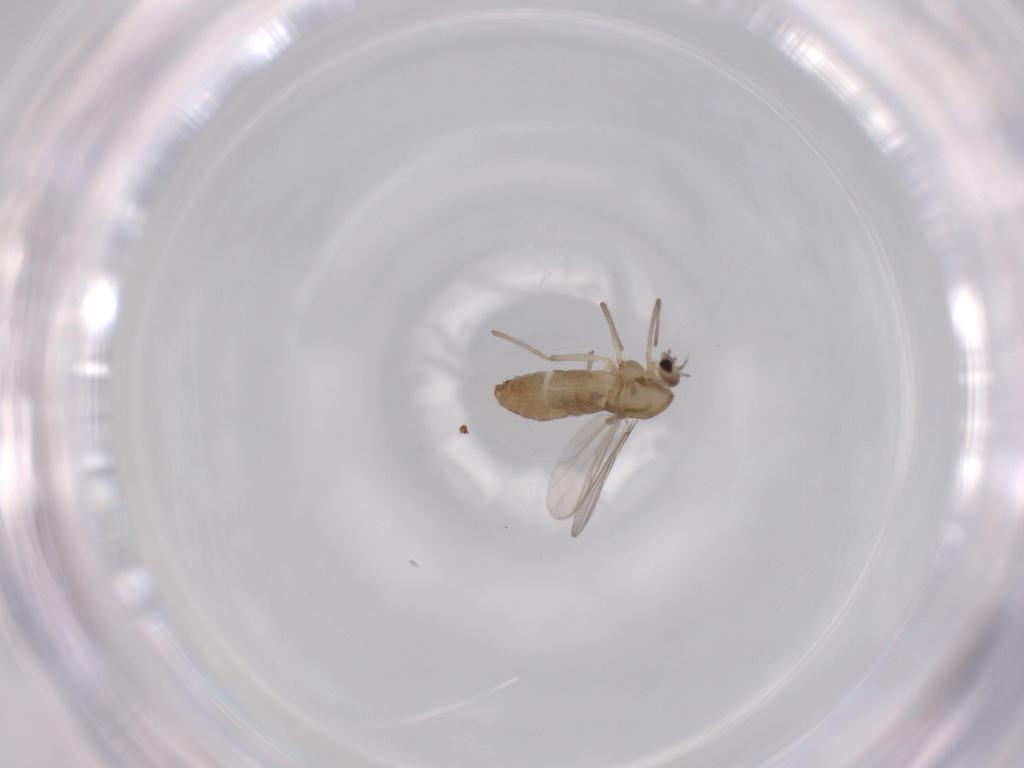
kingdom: Animalia
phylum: Arthropoda
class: Insecta
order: Diptera
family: Chironomidae
